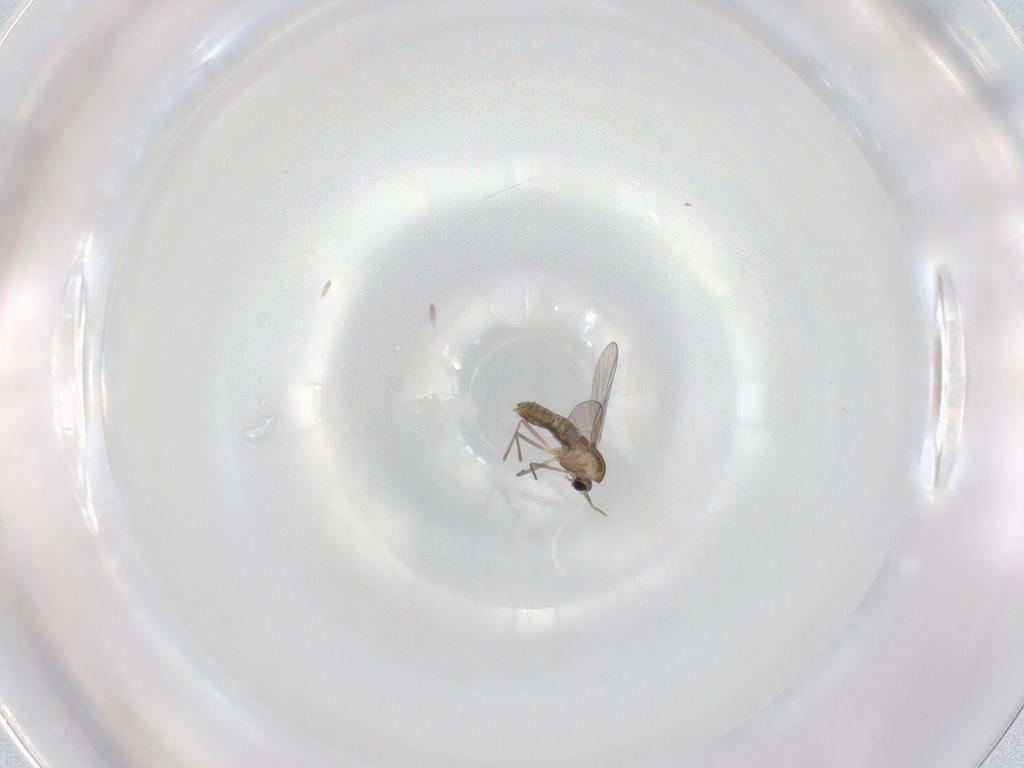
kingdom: Animalia
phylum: Arthropoda
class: Insecta
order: Diptera
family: Chironomidae
